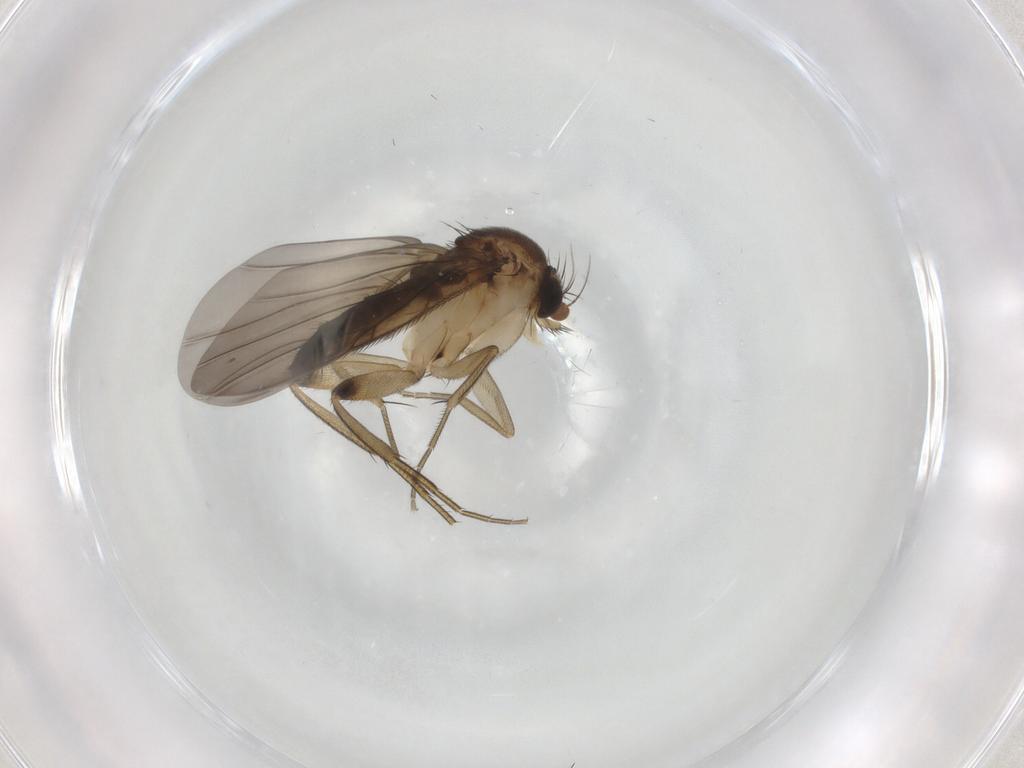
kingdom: Animalia
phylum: Arthropoda
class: Insecta
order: Diptera
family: Phoridae
